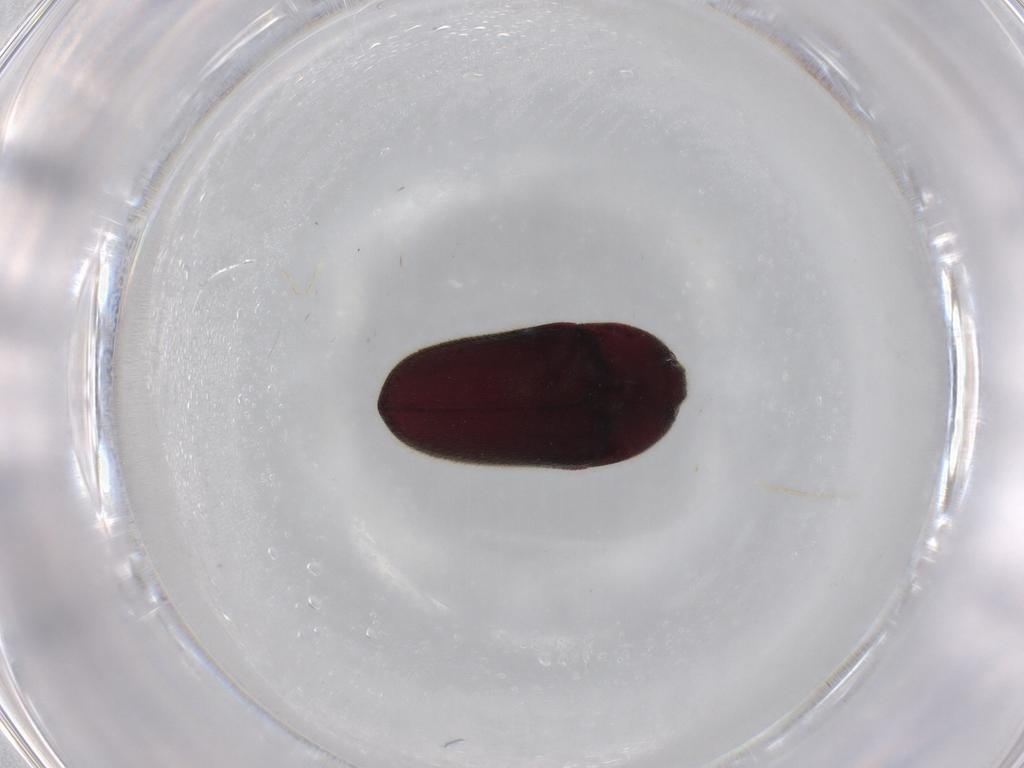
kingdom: Animalia
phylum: Arthropoda
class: Insecta
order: Coleoptera
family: Throscidae
